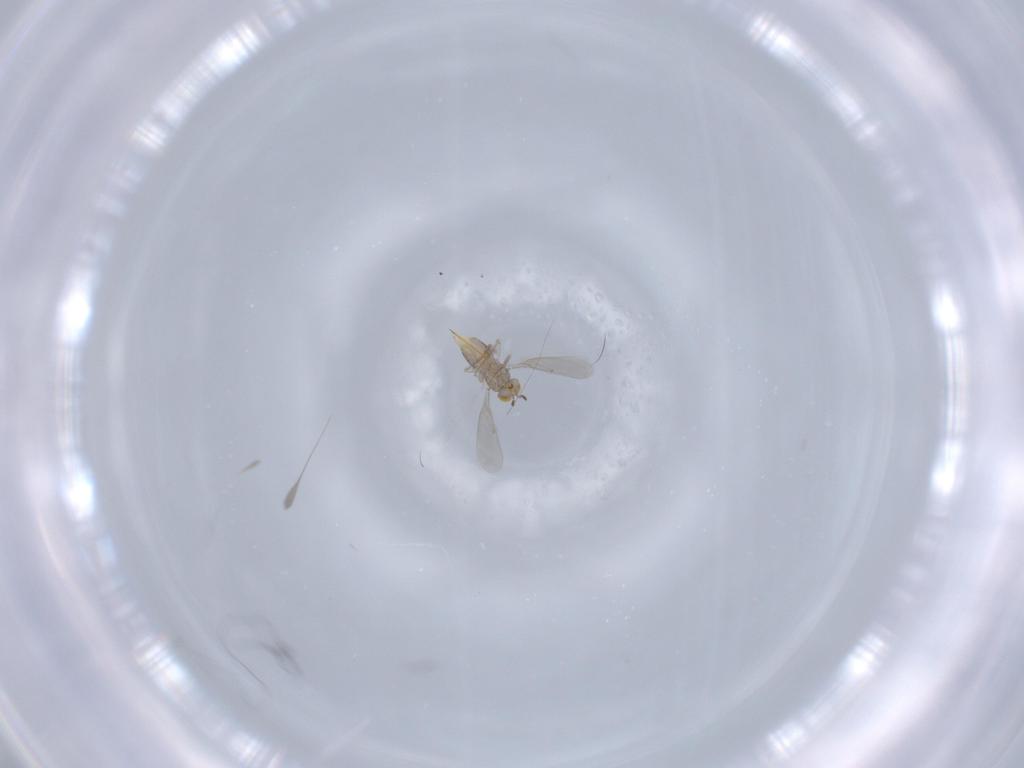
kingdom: Animalia
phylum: Arthropoda
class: Insecta
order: Hymenoptera
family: Aphelinidae
